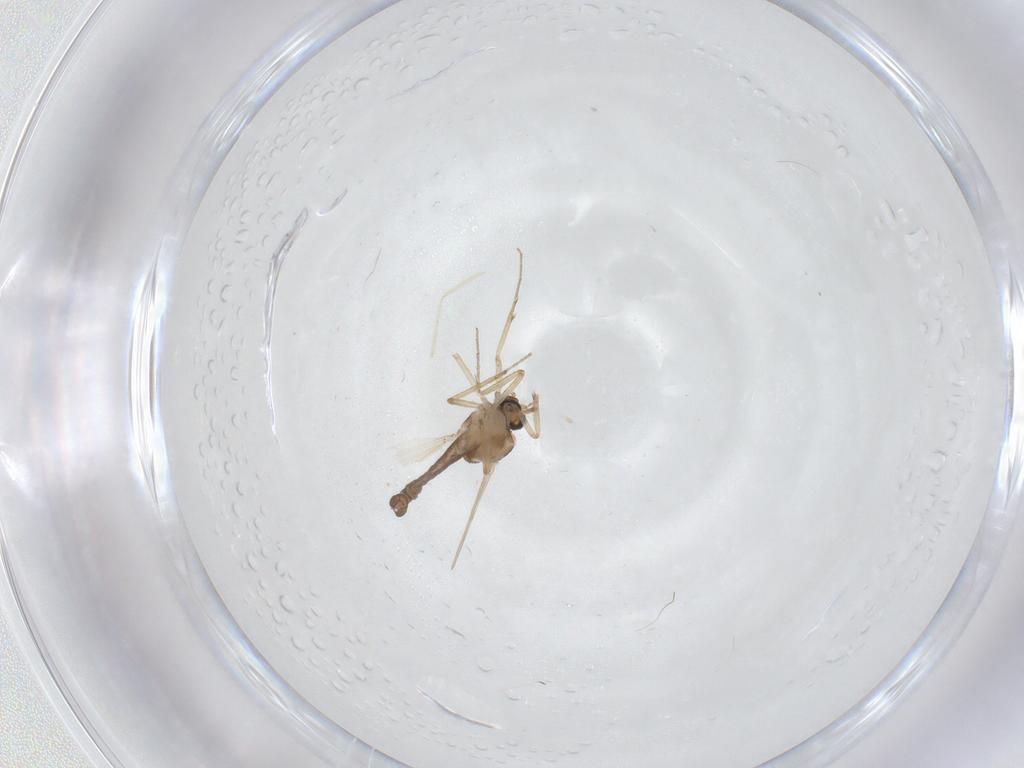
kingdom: Animalia
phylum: Arthropoda
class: Insecta
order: Diptera
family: Ceratopogonidae
